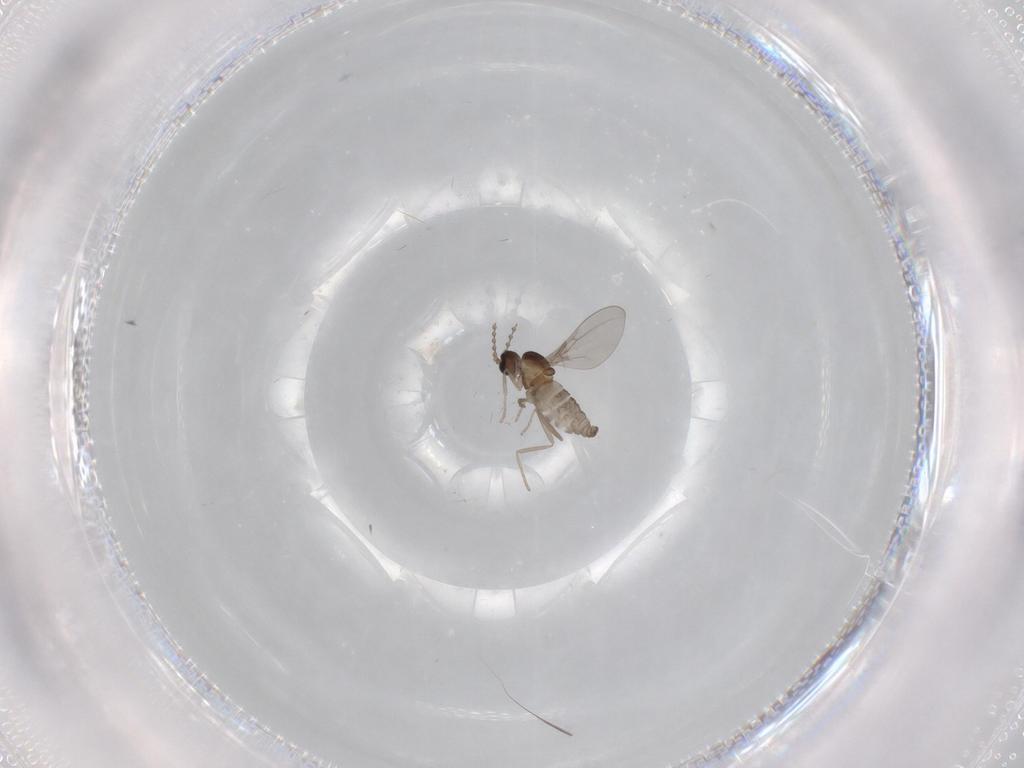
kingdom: Animalia
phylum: Arthropoda
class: Insecta
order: Diptera
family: Cecidomyiidae
